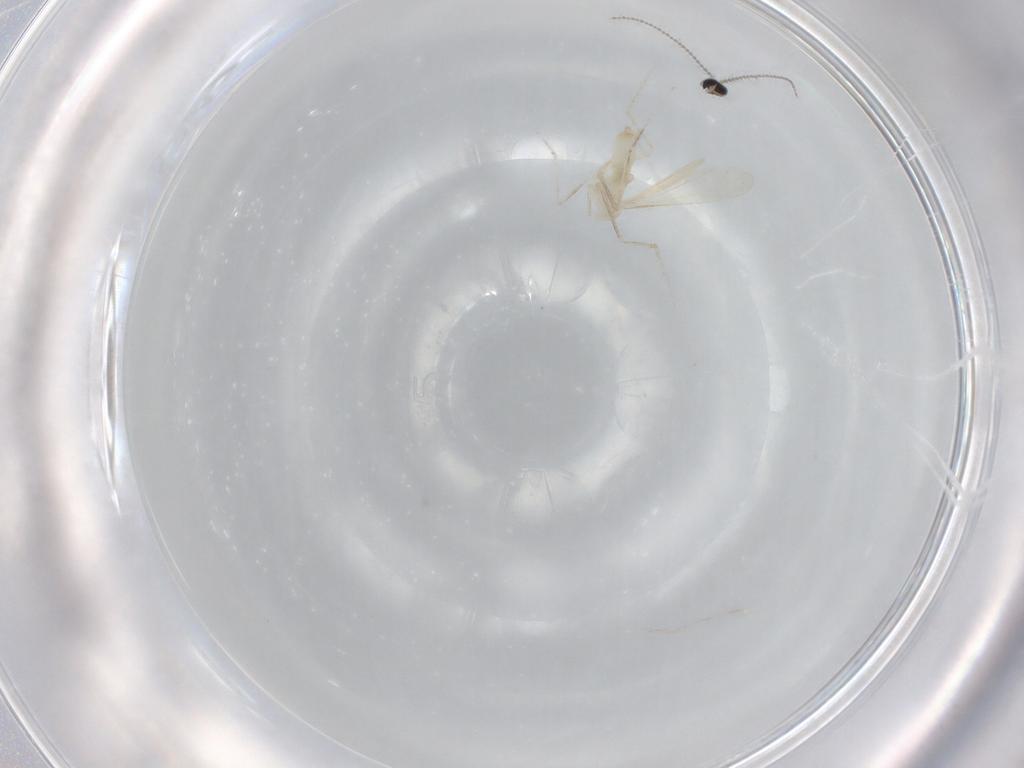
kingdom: Animalia
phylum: Arthropoda
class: Insecta
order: Diptera
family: Cecidomyiidae
